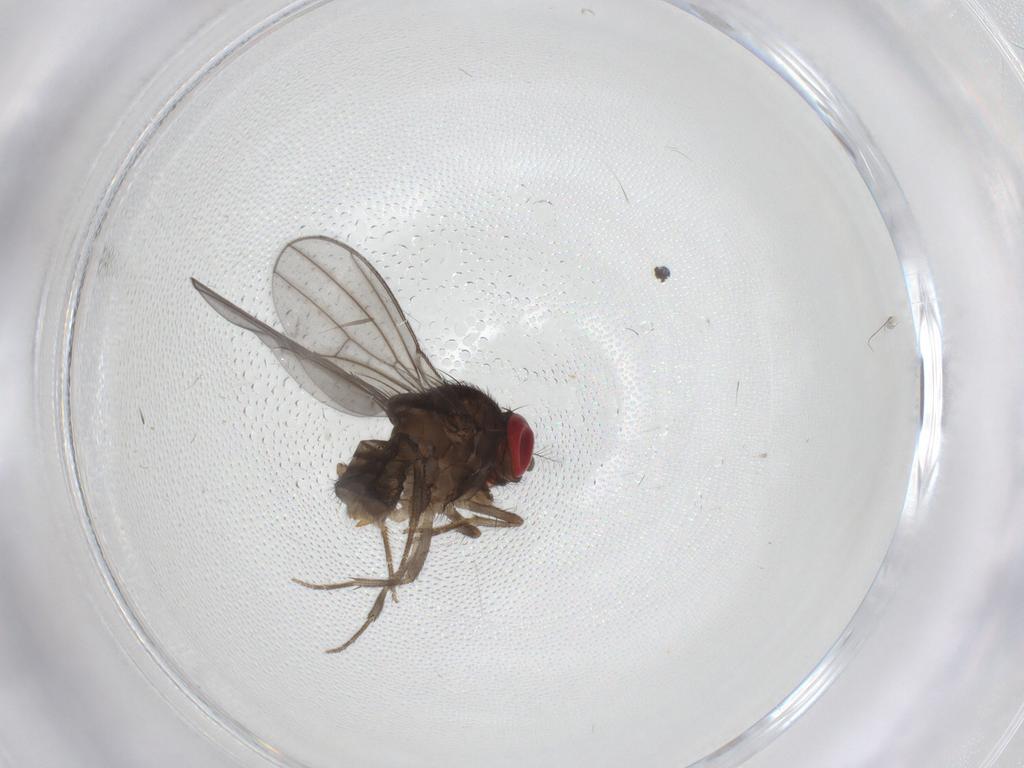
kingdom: Animalia
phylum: Arthropoda
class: Insecta
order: Diptera
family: Drosophilidae
